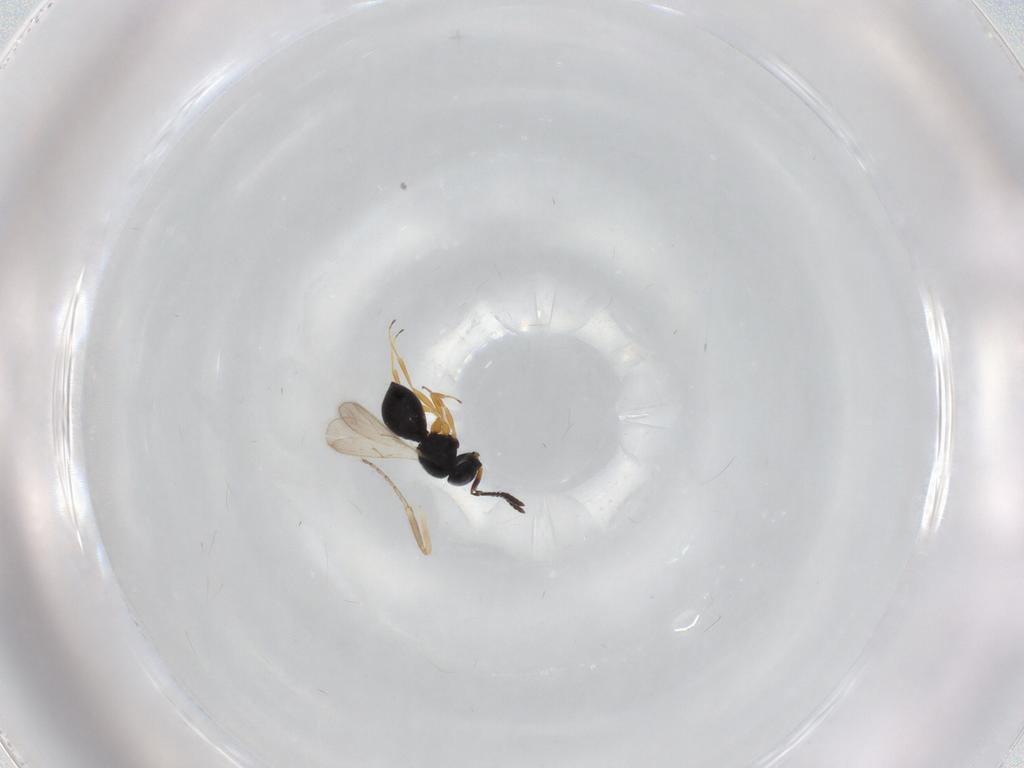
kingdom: Animalia
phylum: Arthropoda
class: Insecta
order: Hymenoptera
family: Scelionidae
